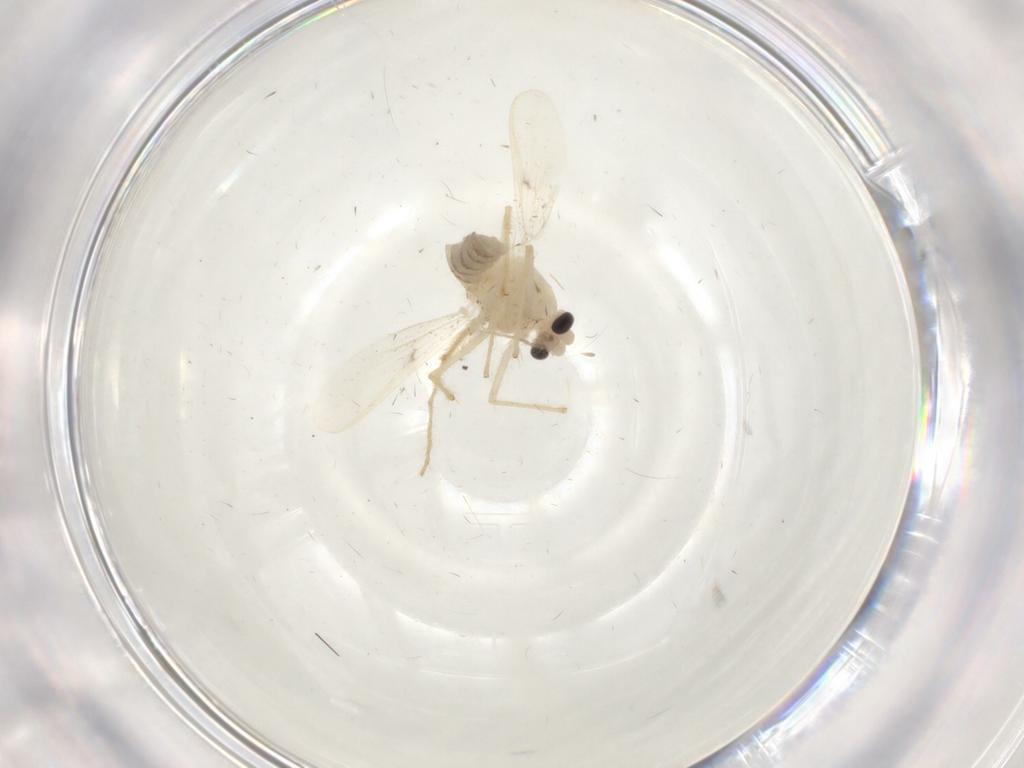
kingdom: Animalia
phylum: Arthropoda
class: Insecta
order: Diptera
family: Chironomidae
